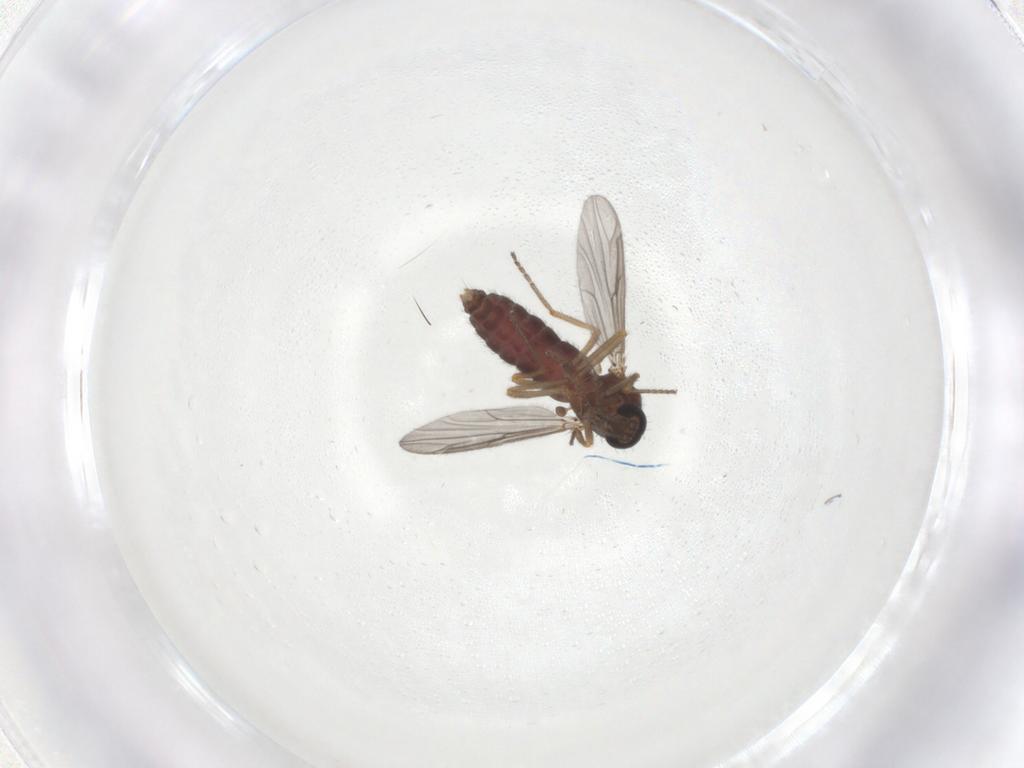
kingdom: Animalia
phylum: Arthropoda
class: Insecta
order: Diptera
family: Ceratopogonidae
